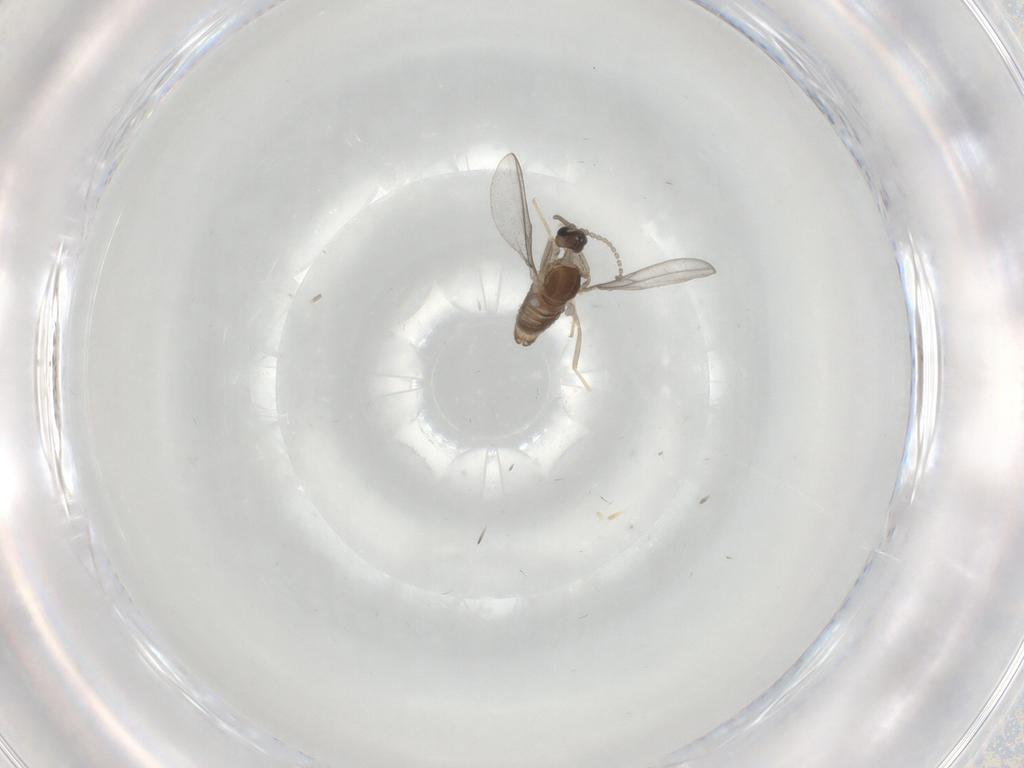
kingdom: Animalia
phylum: Arthropoda
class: Insecta
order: Diptera
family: Cecidomyiidae
